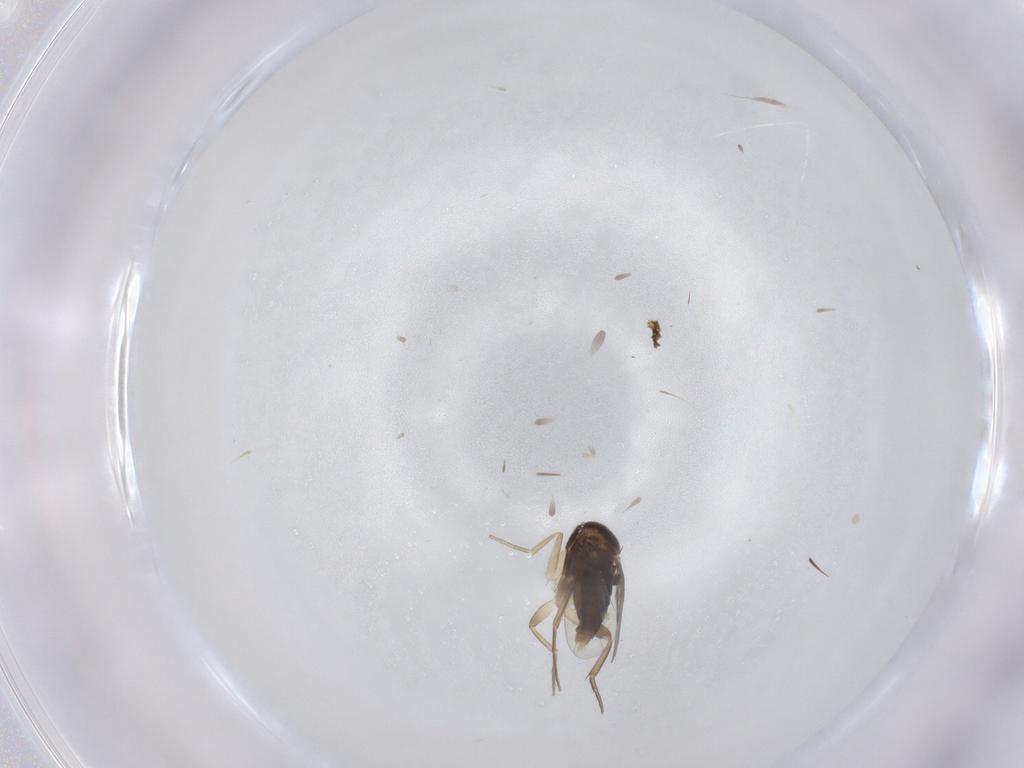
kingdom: Animalia
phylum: Arthropoda
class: Insecta
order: Diptera
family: Phoridae
